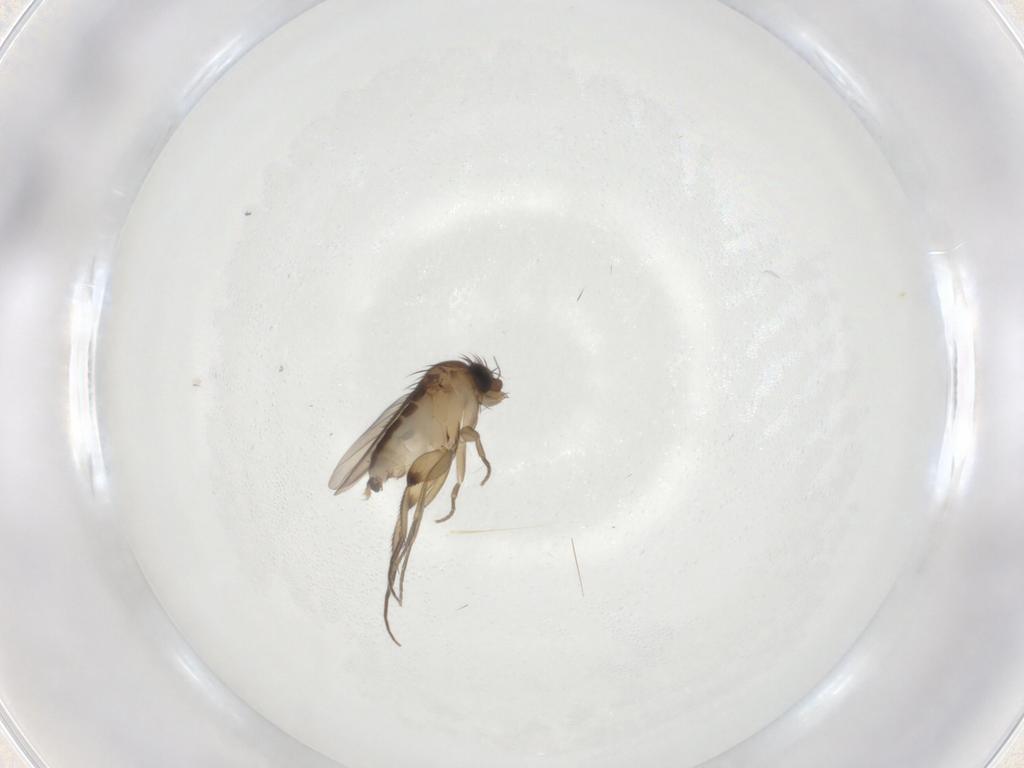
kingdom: Animalia
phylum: Arthropoda
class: Insecta
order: Diptera
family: Phoridae
